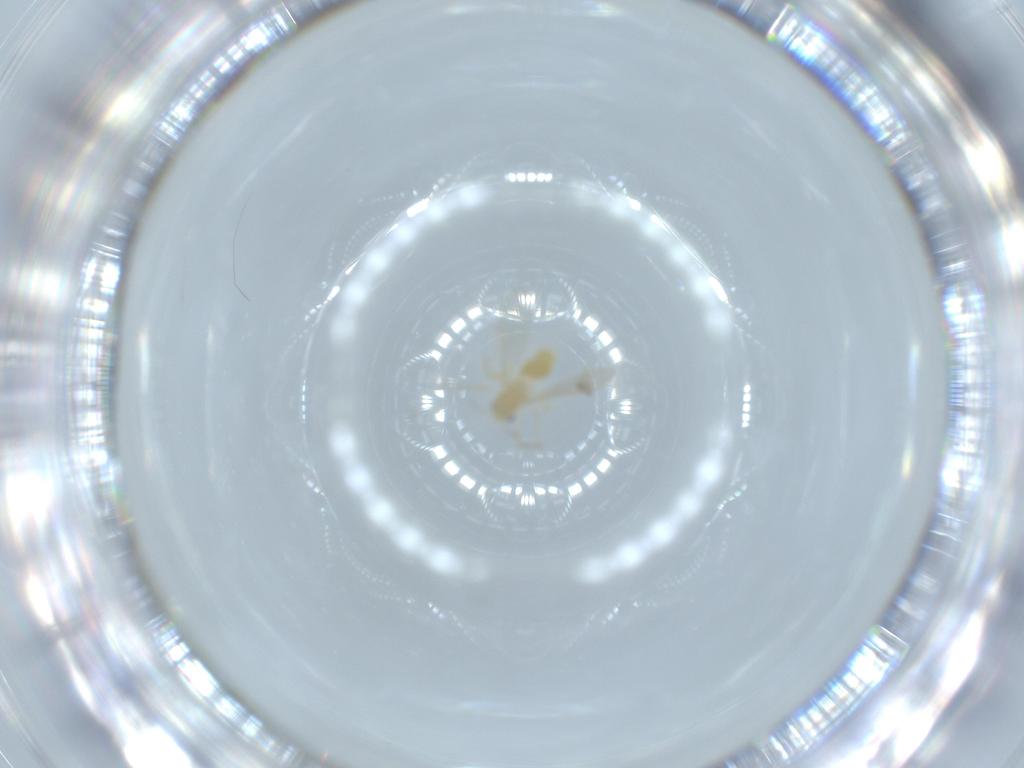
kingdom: Animalia
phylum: Arthropoda
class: Insecta
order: Diptera
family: Chironomidae
